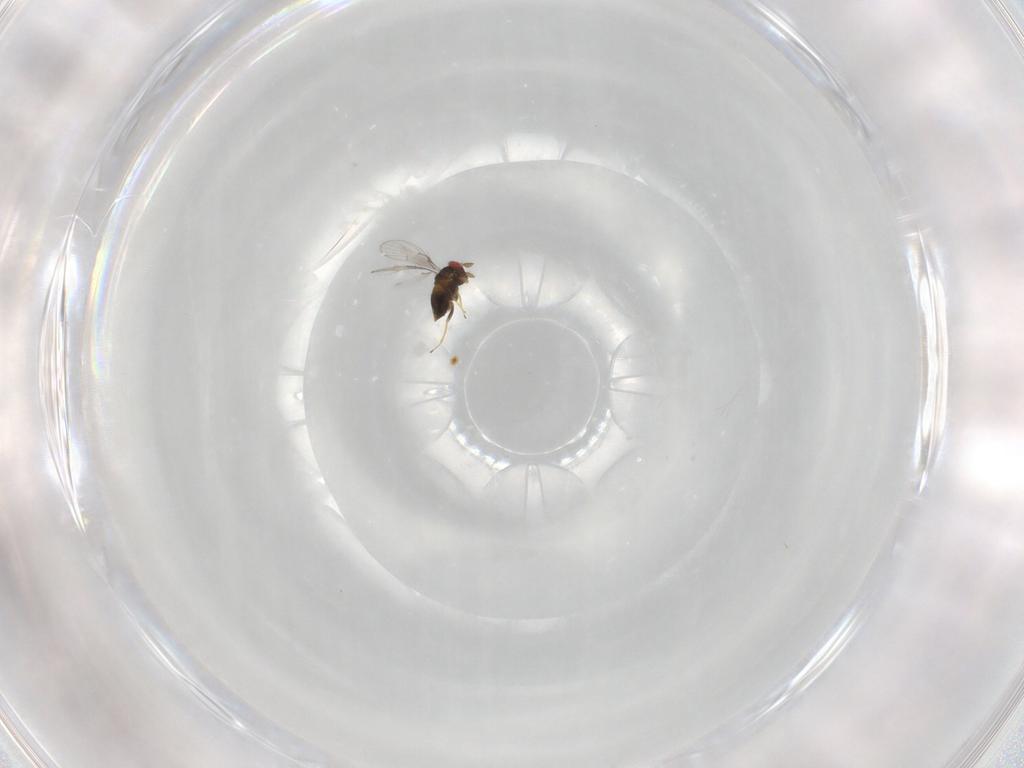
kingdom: Animalia
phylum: Arthropoda
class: Insecta
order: Hymenoptera
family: Trichogrammatidae
